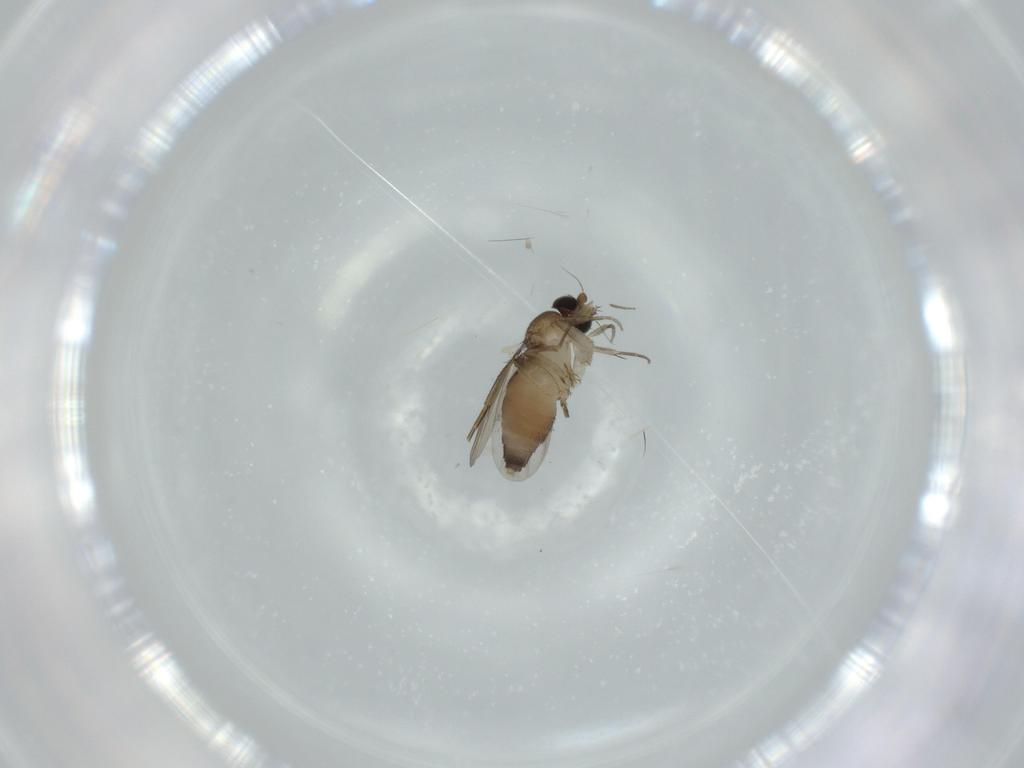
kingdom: Animalia
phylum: Arthropoda
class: Insecta
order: Diptera
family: Phoridae
